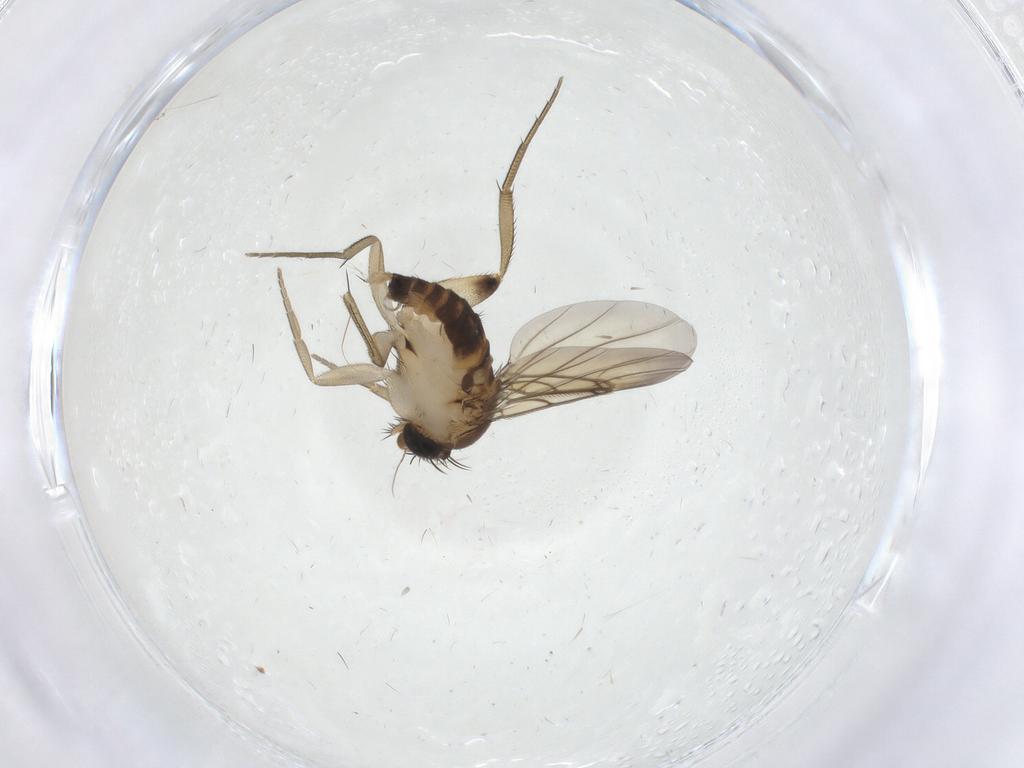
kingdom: Animalia
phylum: Arthropoda
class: Insecta
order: Diptera
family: Phoridae
